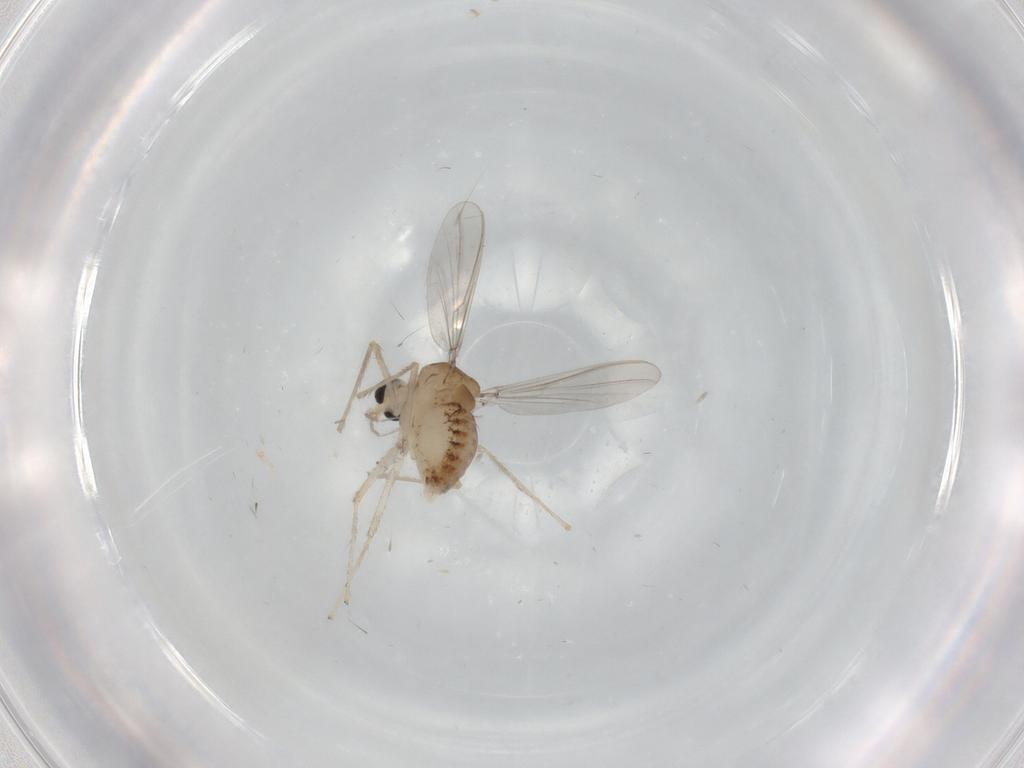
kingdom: Animalia
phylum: Arthropoda
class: Insecta
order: Diptera
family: Chironomidae
